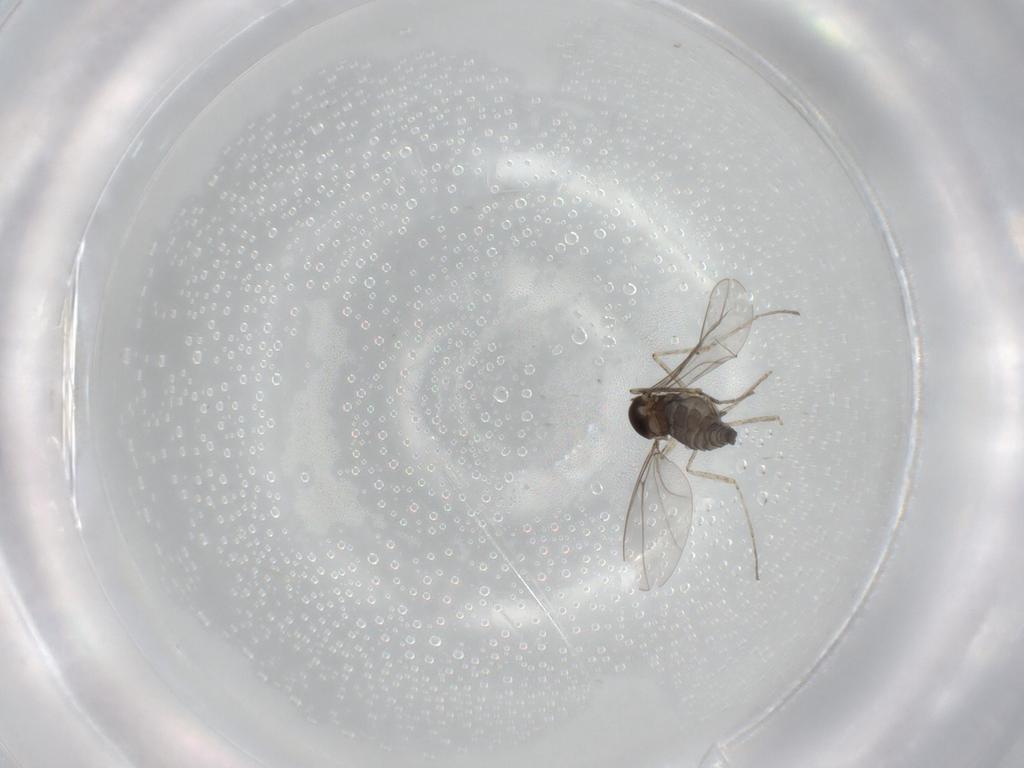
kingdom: Animalia
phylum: Arthropoda
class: Insecta
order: Diptera
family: Cecidomyiidae
